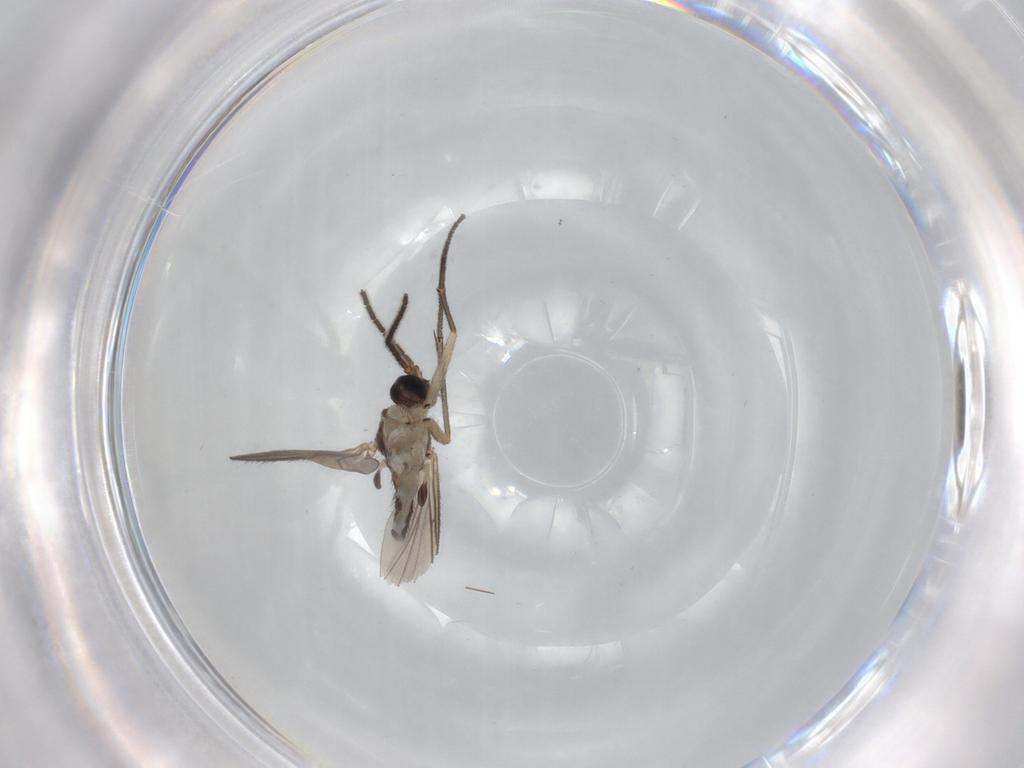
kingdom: Animalia
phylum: Arthropoda
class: Insecta
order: Diptera
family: Sciaridae
